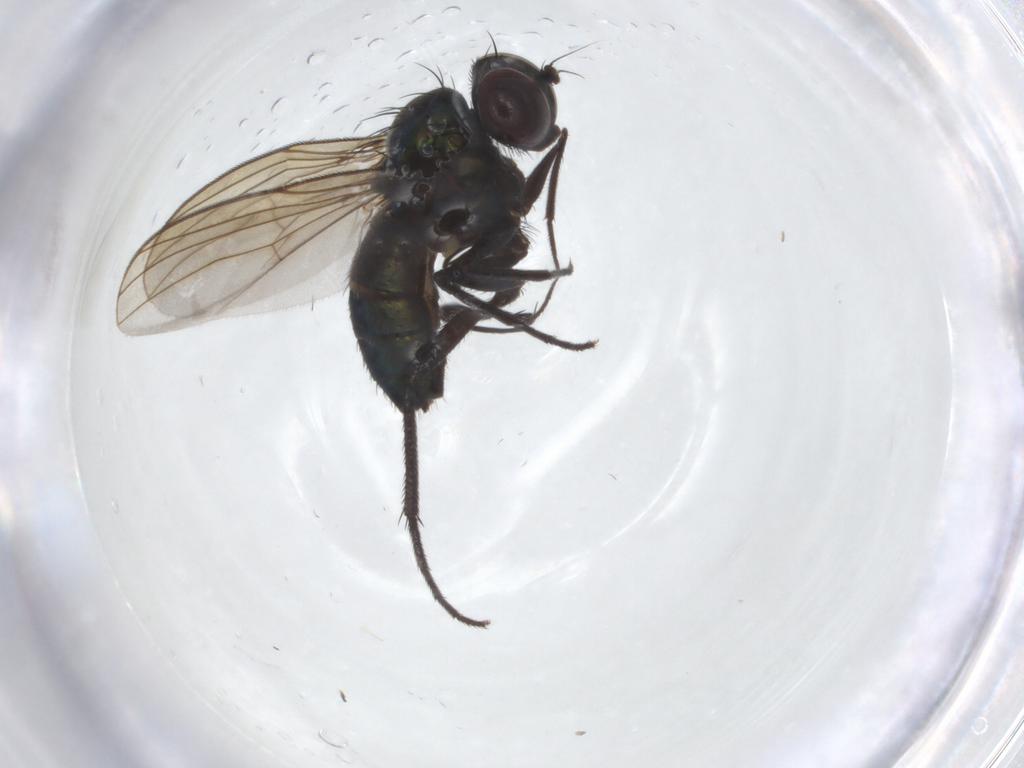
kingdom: Animalia
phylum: Arthropoda
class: Insecta
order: Diptera
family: Dolichopodidae
